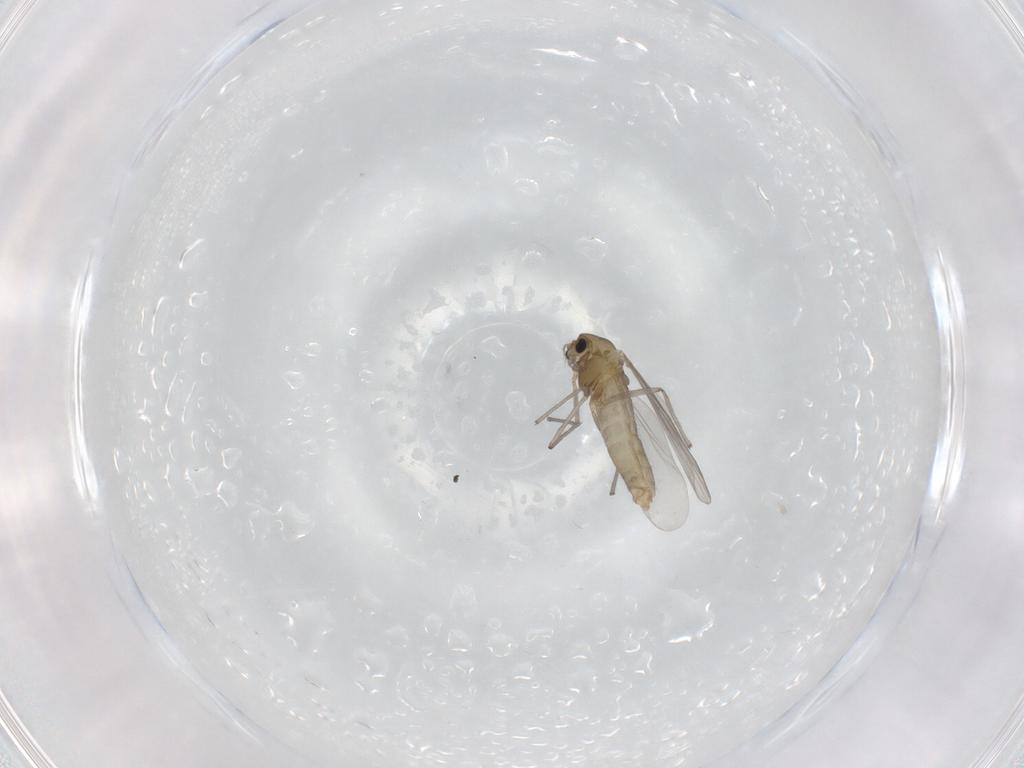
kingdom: Animalia
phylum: Arthropoda
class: Insecta
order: Diptera
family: Chironomidae
